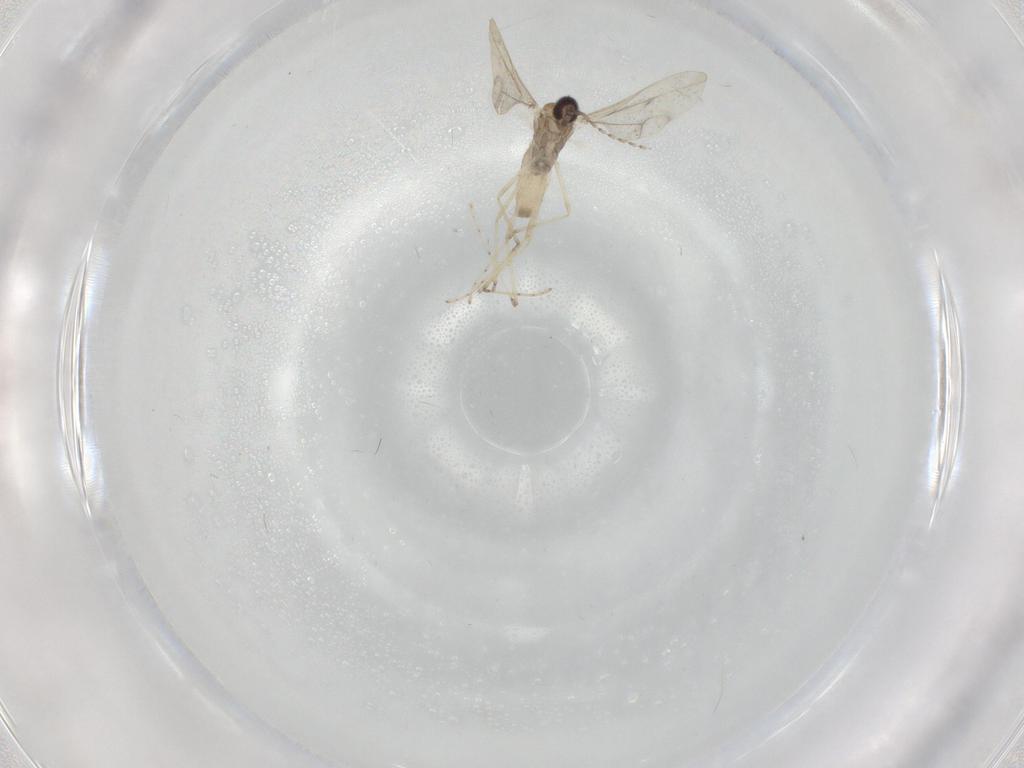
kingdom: Animalia
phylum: Arthropoda
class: Insecta
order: Diptera
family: Cecidomyiidae
